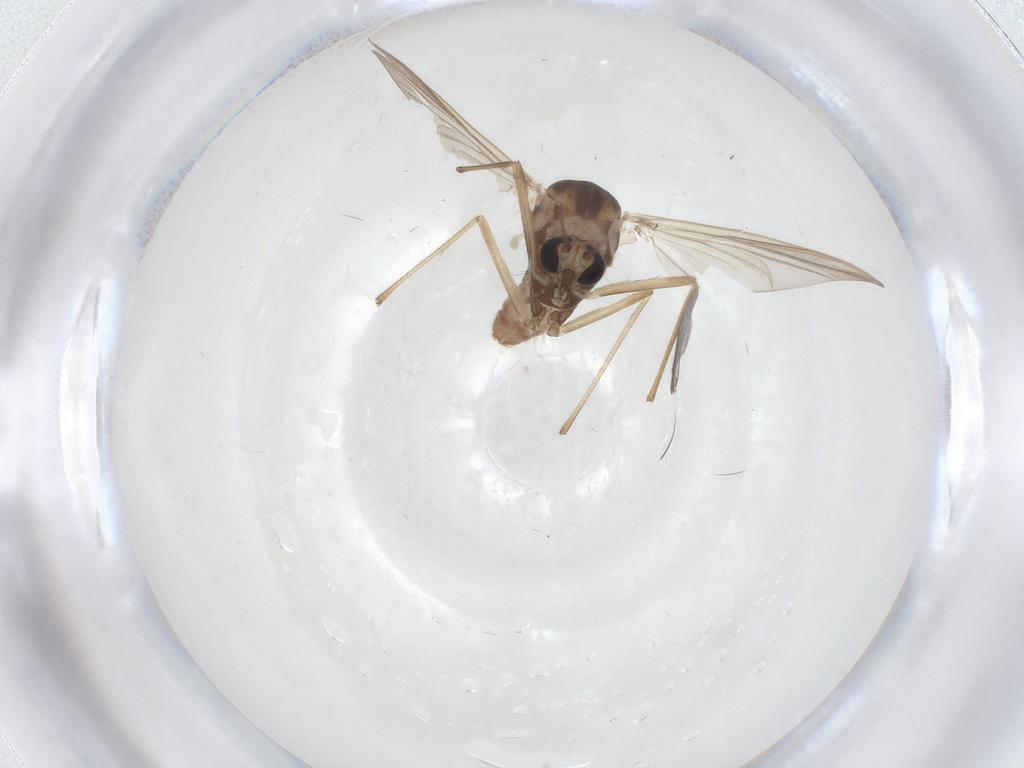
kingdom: Animalia
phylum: Arthropoda
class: Insecta
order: Diptera
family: Chironomidae
